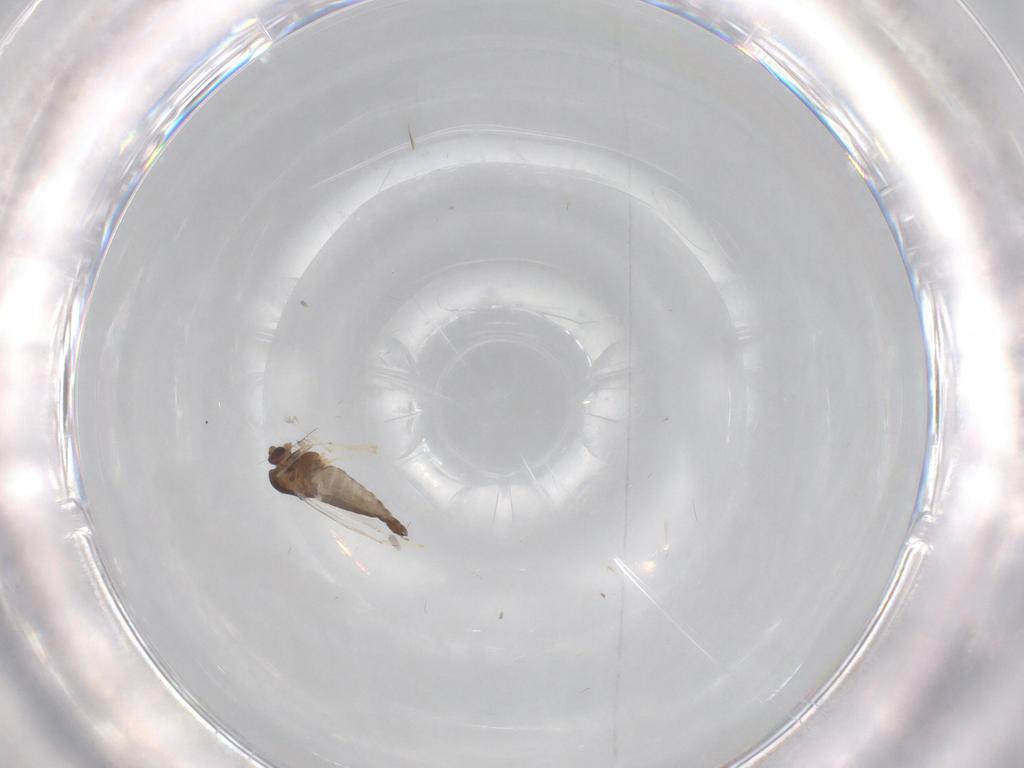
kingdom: Animalia
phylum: Arthropoda
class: Insecta
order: Diptera
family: Chironomidae
